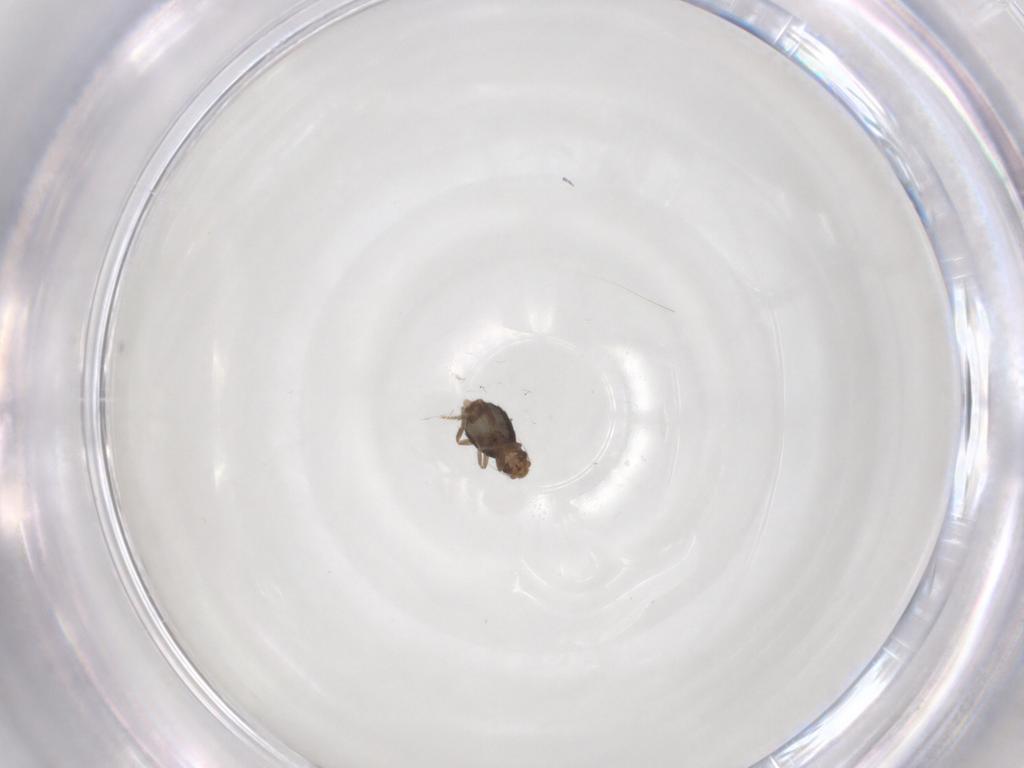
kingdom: Animalia
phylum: Arthropoda
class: Insecta
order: Diptera
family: Phoridae
